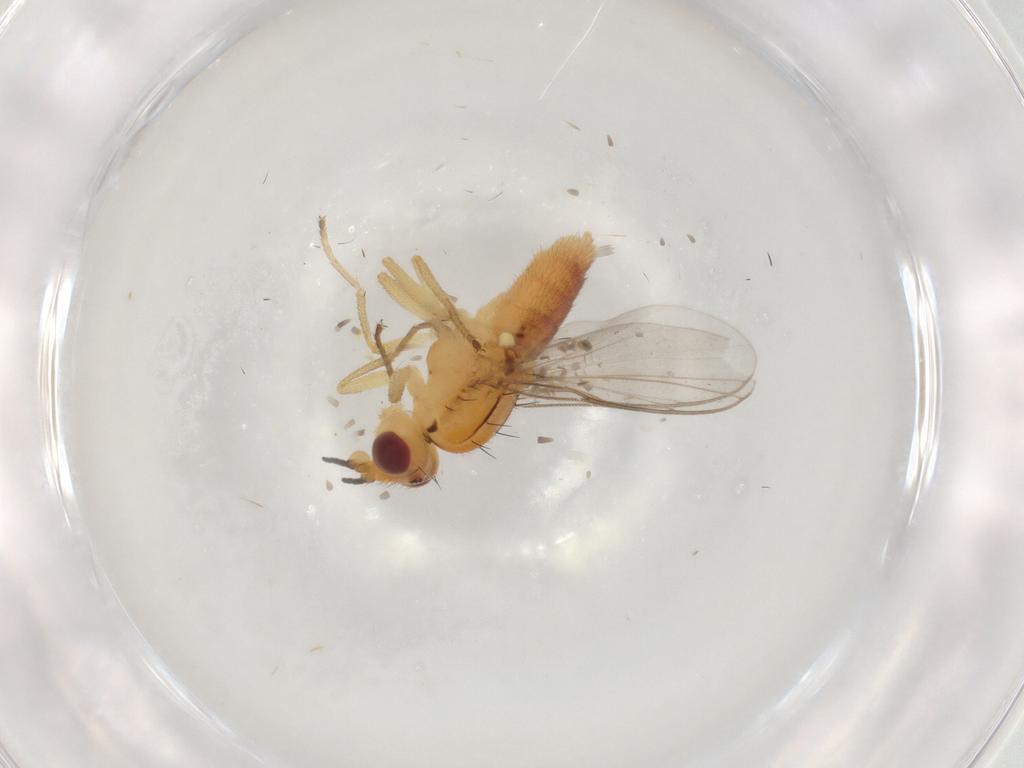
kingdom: Animalia
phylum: Arthropoda
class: Insecta
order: Diptera
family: Chloropidae
